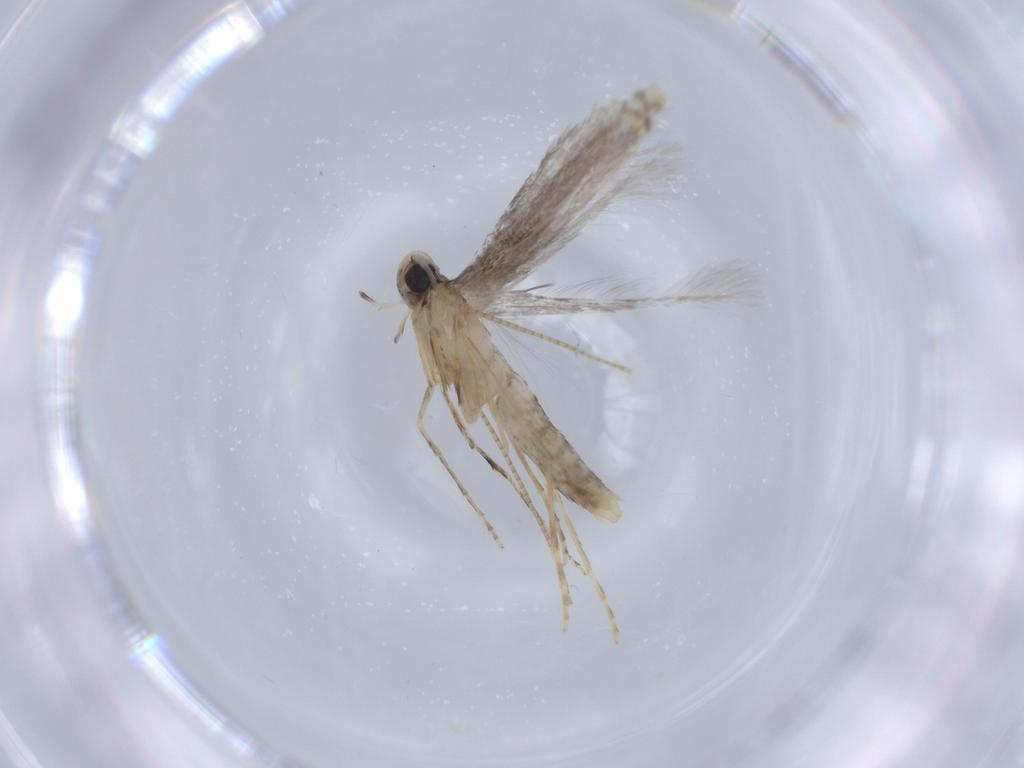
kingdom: Animalia
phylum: Arthropoda
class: Insecta
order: Lepidoptera
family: Gracillariidae
